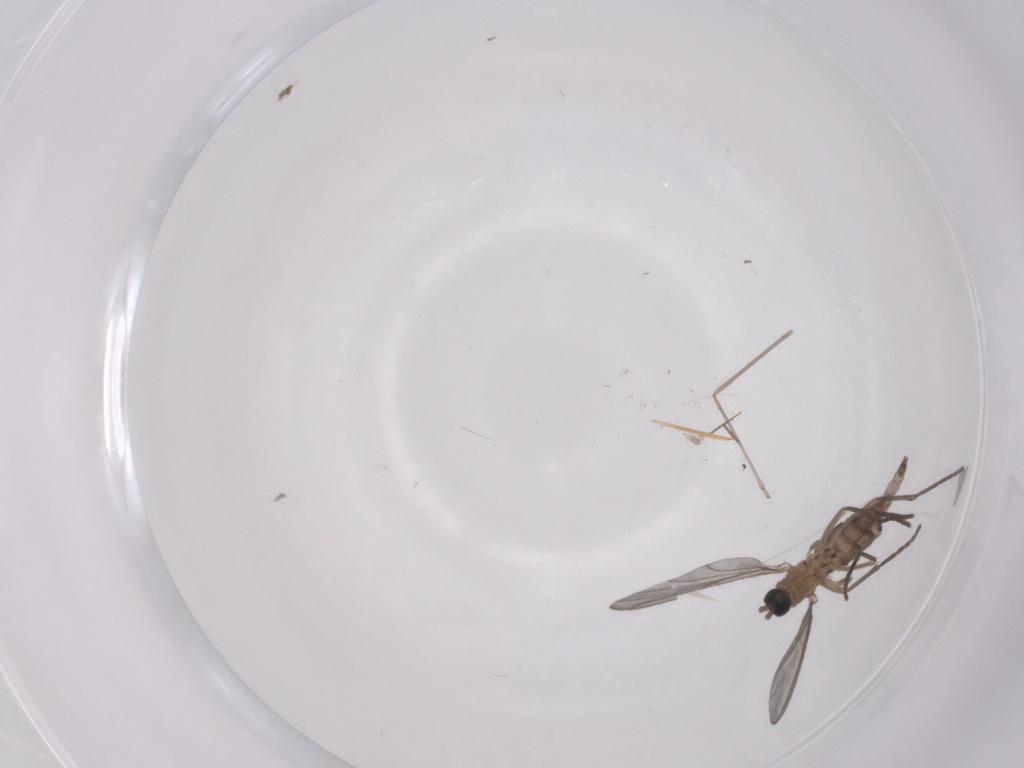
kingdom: Animalia
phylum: Arthropoda
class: Insecta
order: Diptera
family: Sciaridae
